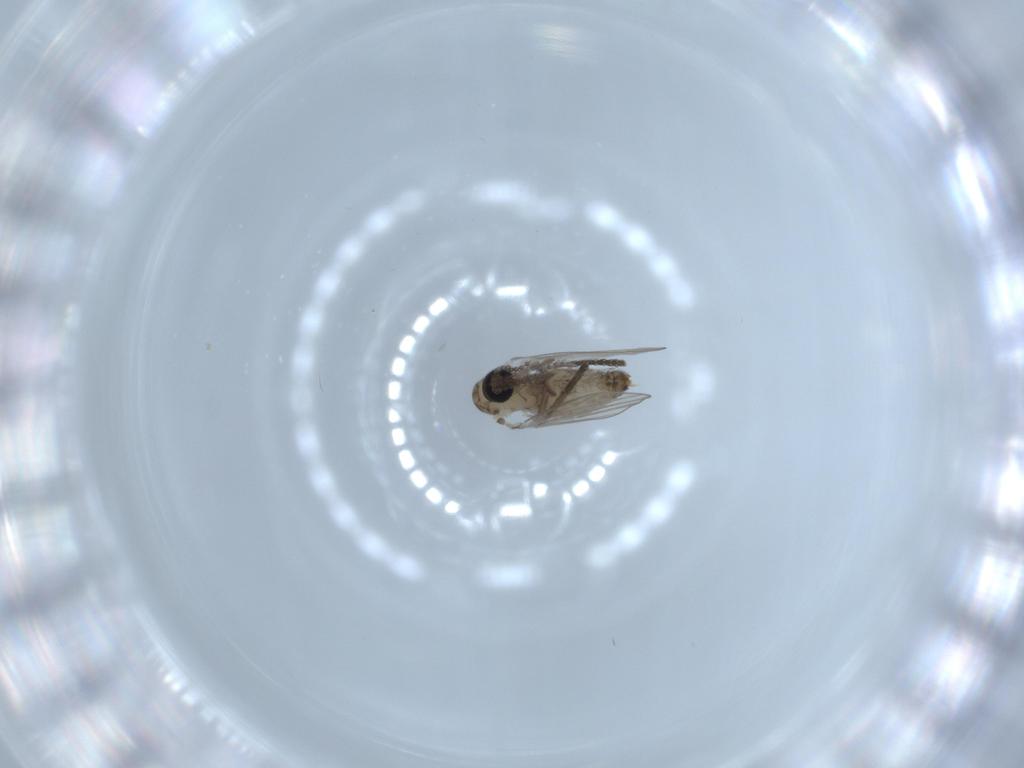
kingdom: Animalia
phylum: Arthropoda
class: Insecta
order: Diptera
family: Psychodidae
